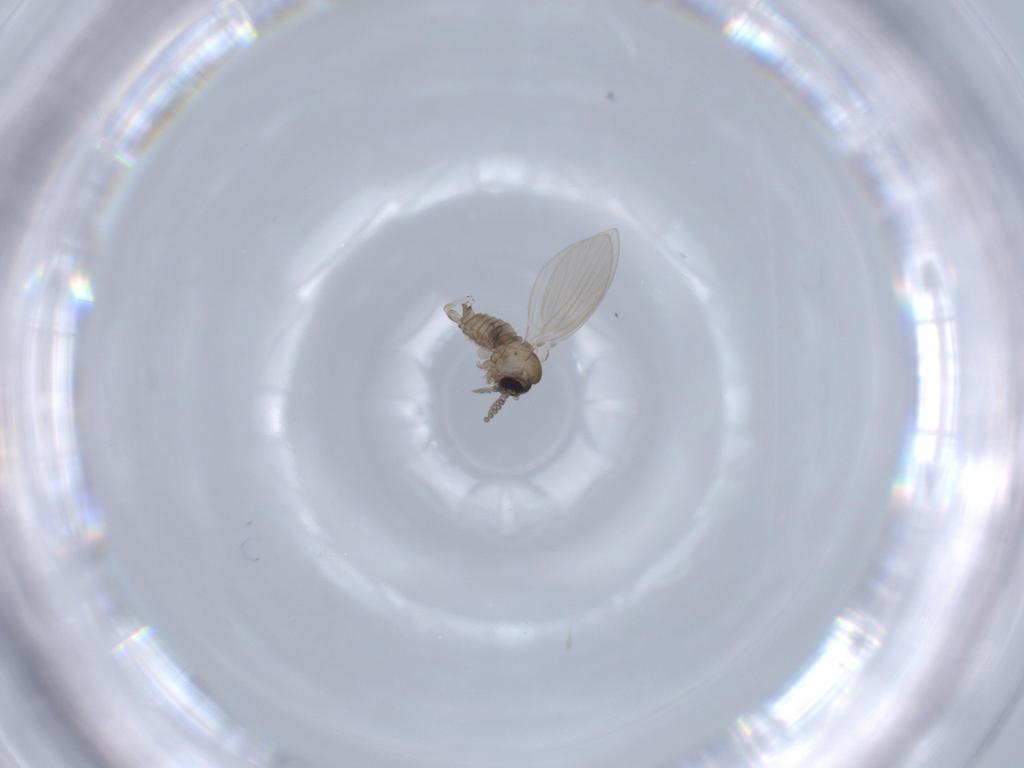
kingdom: Animalia
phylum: Arthropoda
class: Insecta
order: Diptera
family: Psychodidae
